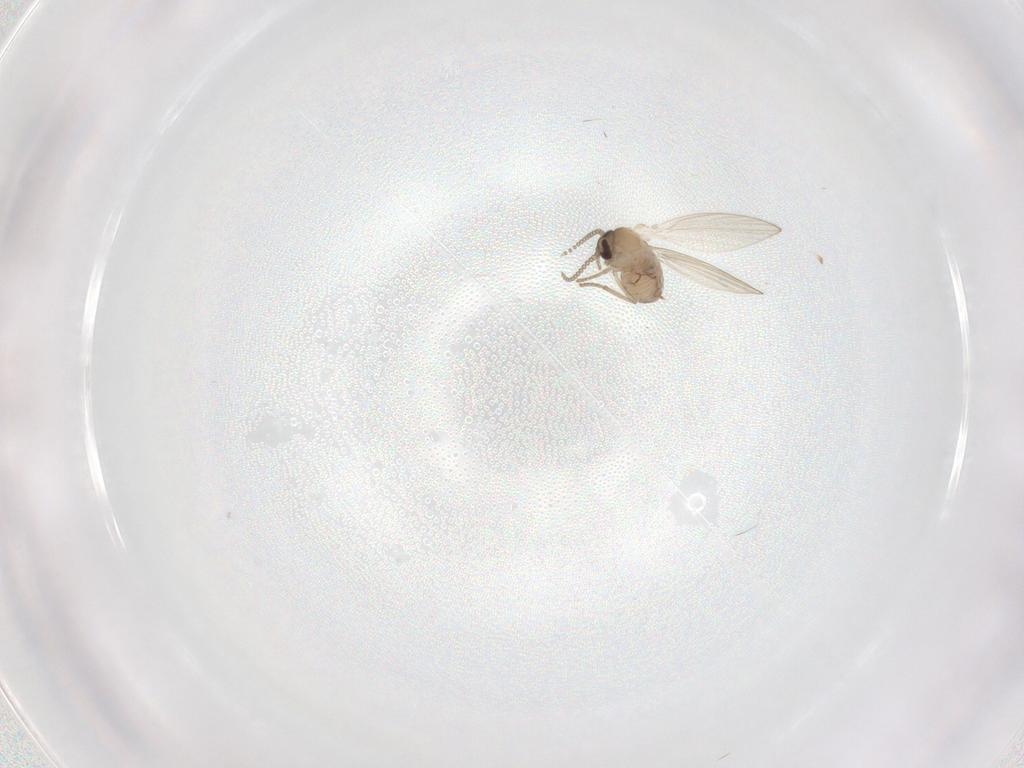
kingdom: Animalia
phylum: Arthropoda
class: Insecta
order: Diptera
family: Psychodidae
